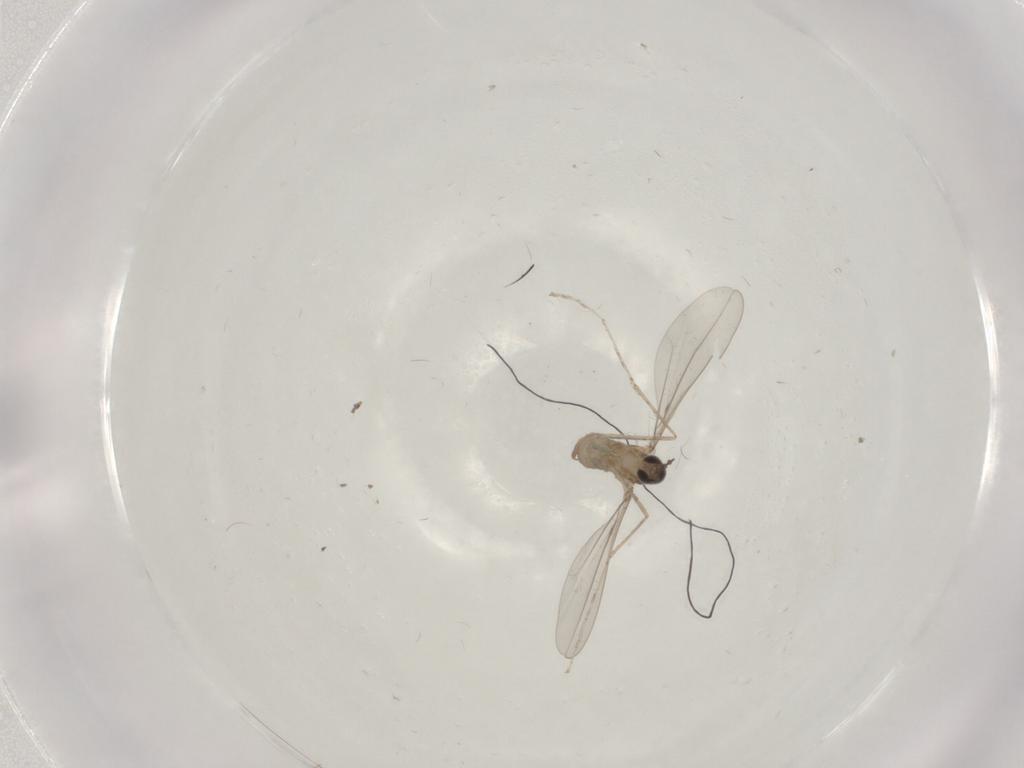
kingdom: Animalia
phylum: Arthropoda
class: Insecta
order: Diptera
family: Cecidomyiidae
